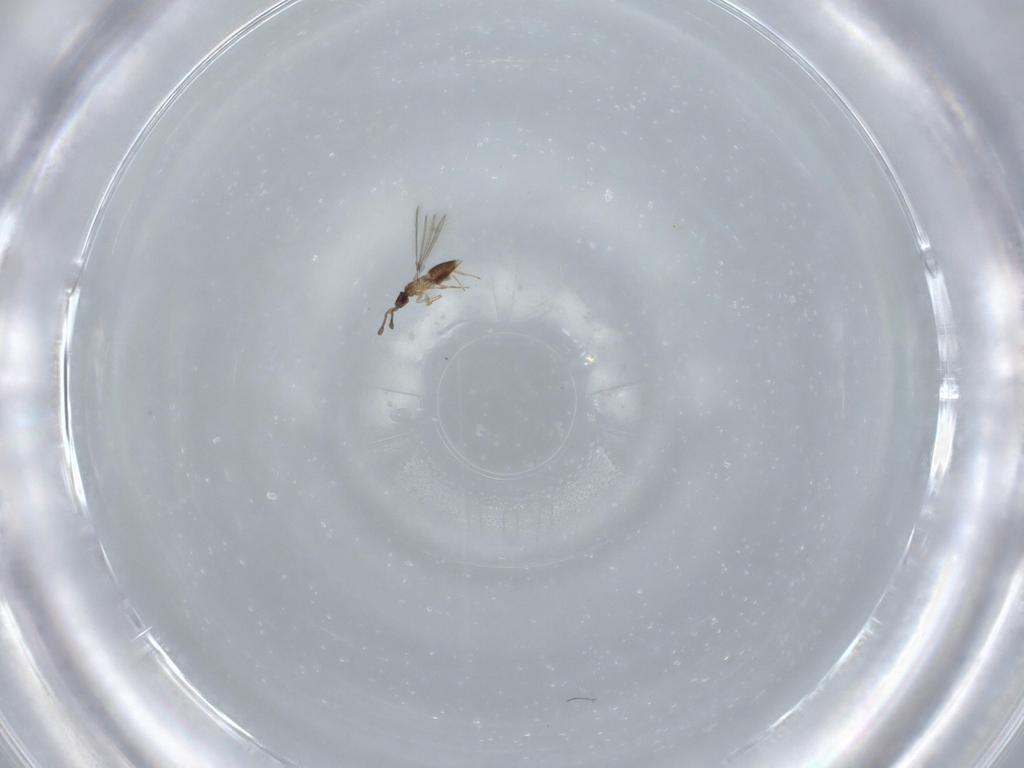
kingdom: Animalia
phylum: Arthropoda
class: Insecta
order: Hymenoptera
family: Mymaridae
